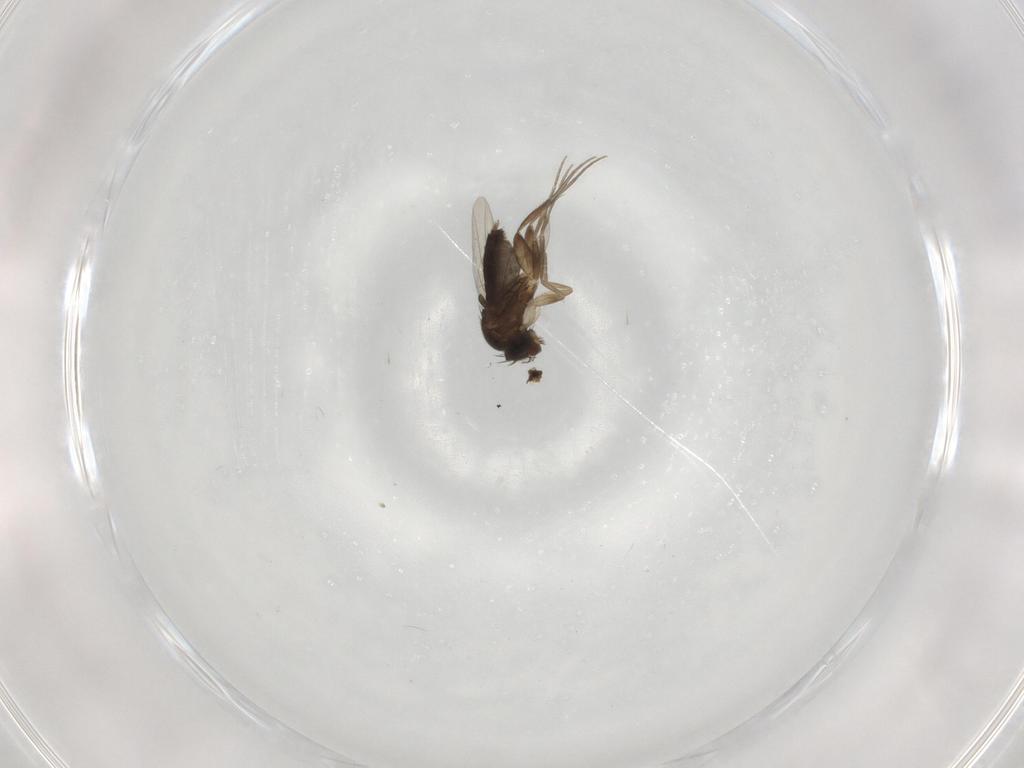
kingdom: Animalia
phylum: Arthropoda
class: Insecta
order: Diptera
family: Phoridae
